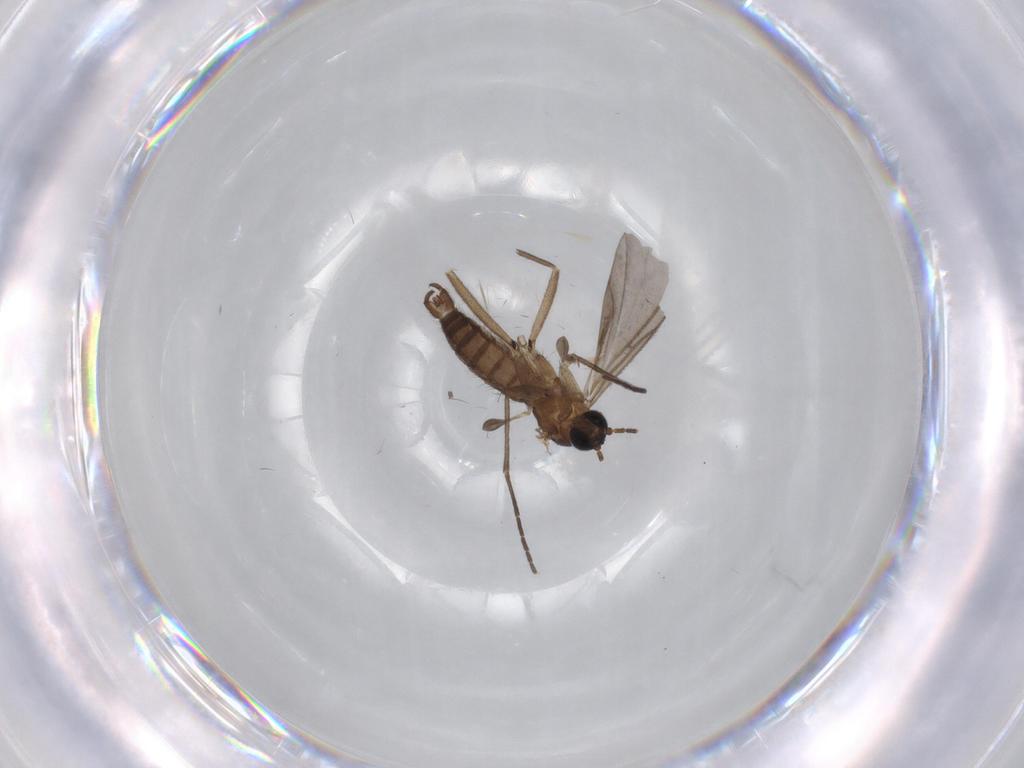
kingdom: Animalia
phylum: Arthropoda
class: Insecta
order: Diptera
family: Cecidomyiidae
